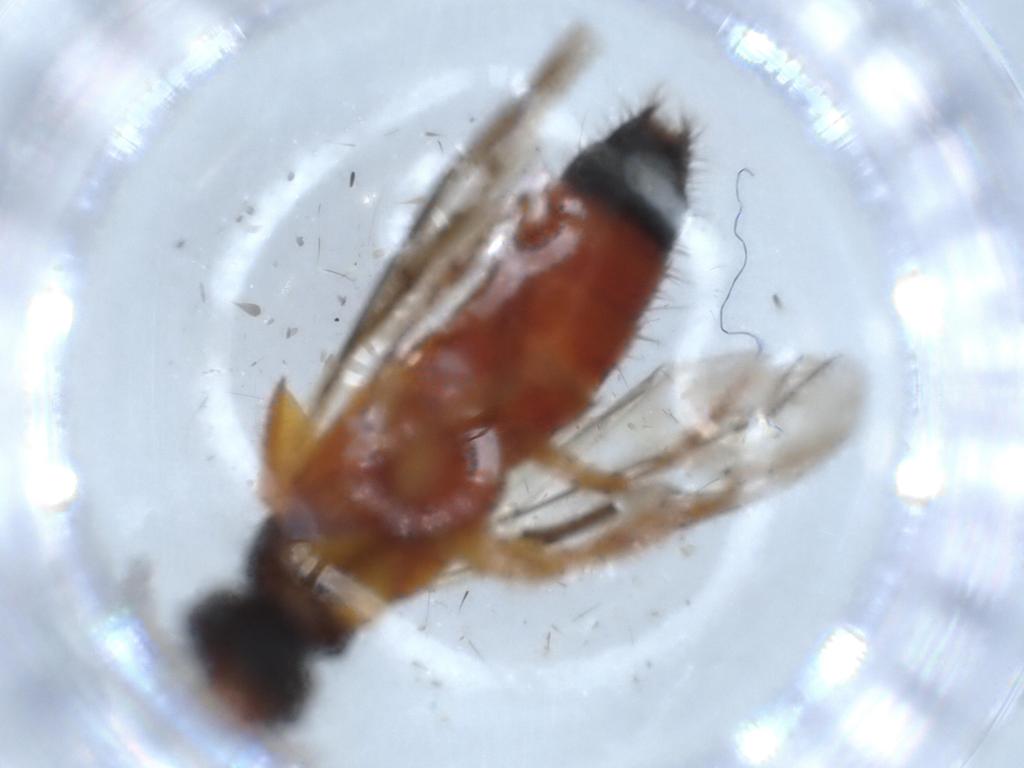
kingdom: Animalia
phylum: Arthropoda
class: Insecta
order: Coleoptera
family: Staphylinidae
